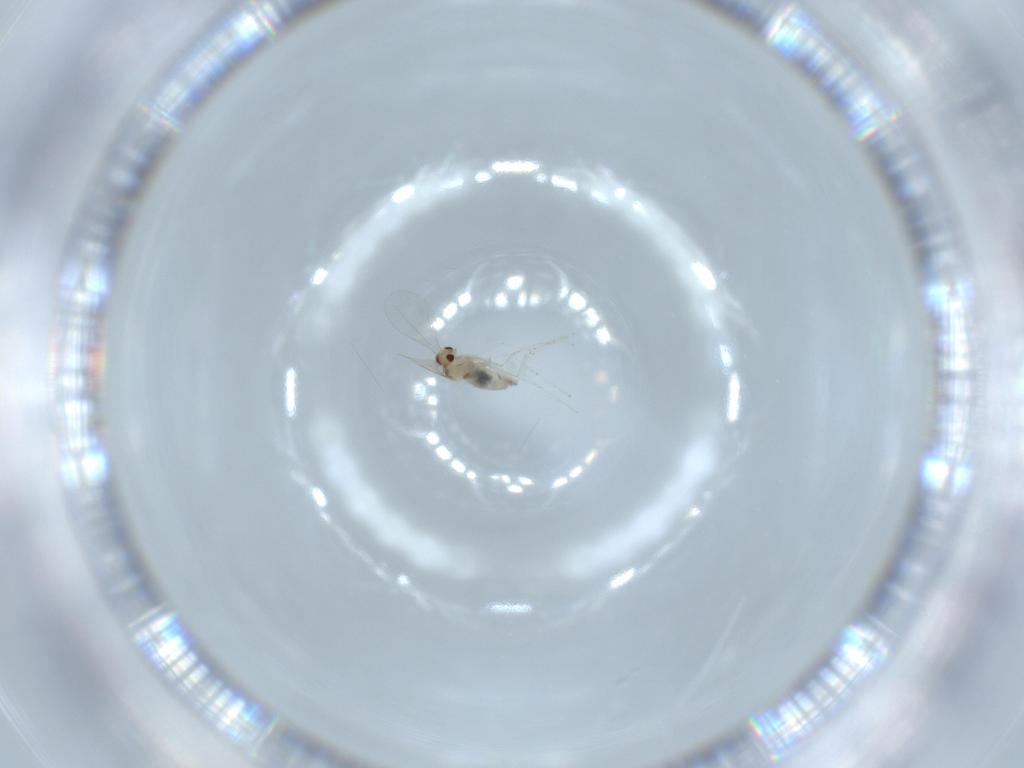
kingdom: Animalia
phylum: Arthropoda
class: Insecta
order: Diptera
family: Cecidomyiidae
